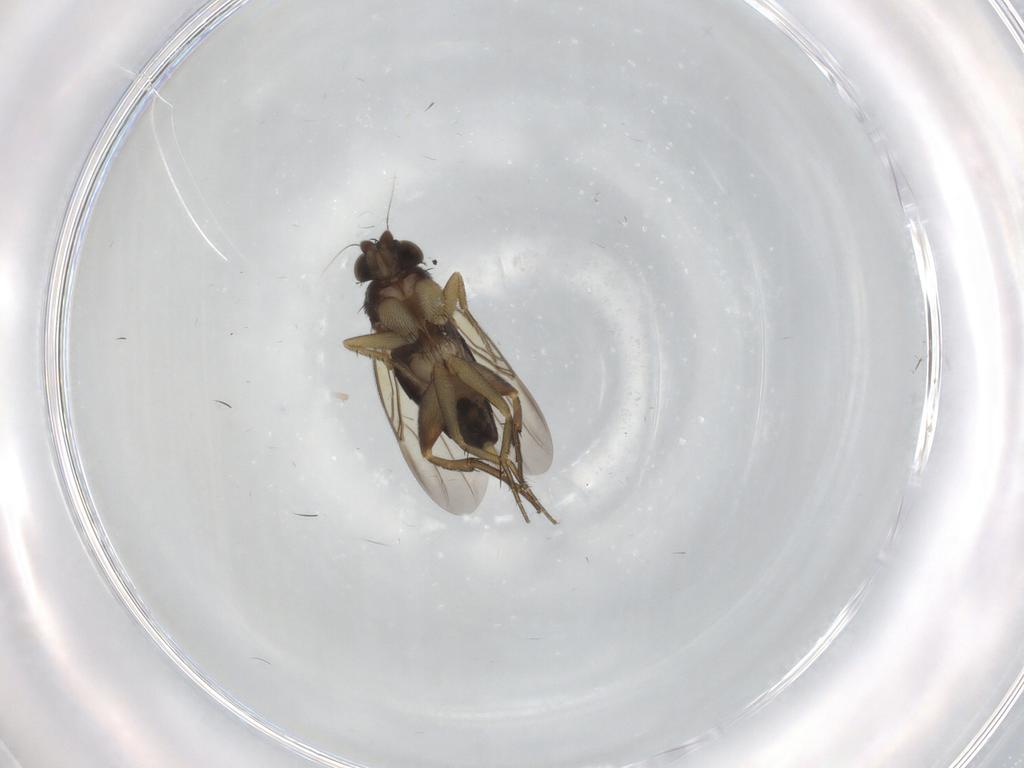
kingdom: Animalia
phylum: Arthropoda
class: Insecta
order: Diptera
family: Phoridae
